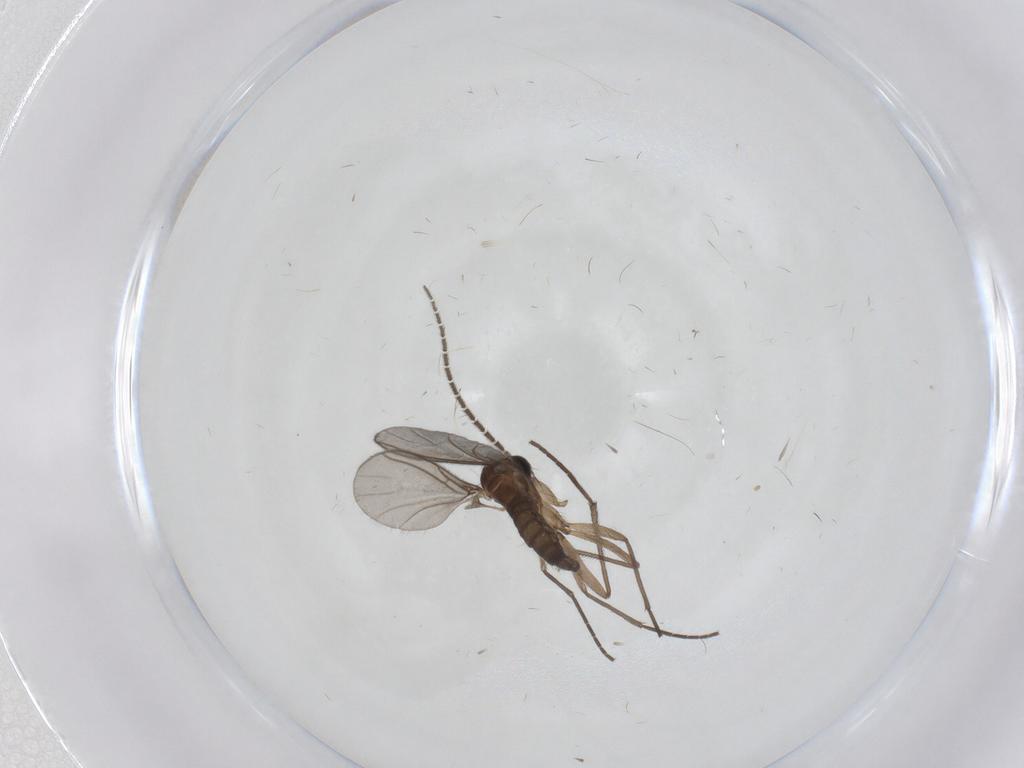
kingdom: Animalia
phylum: Arthropoda
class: Insecta
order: Diptera
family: Sciaridae
